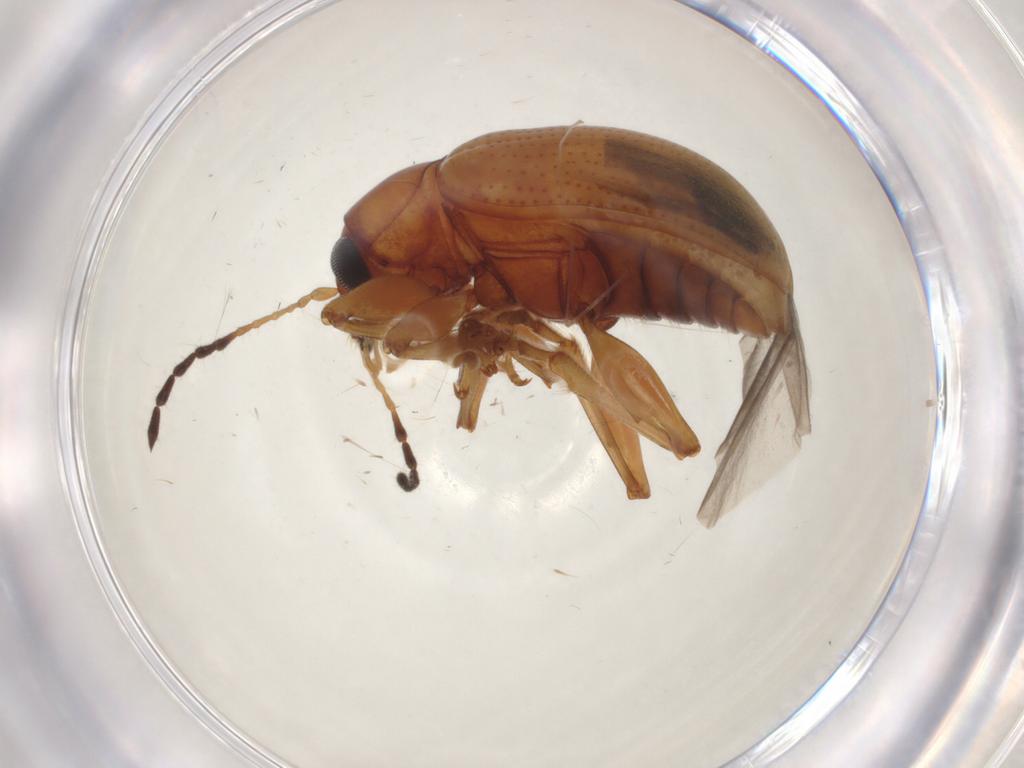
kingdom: Animalia
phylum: Arthropoda
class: Insecta
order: Coleoptera
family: Chrysomelidae
